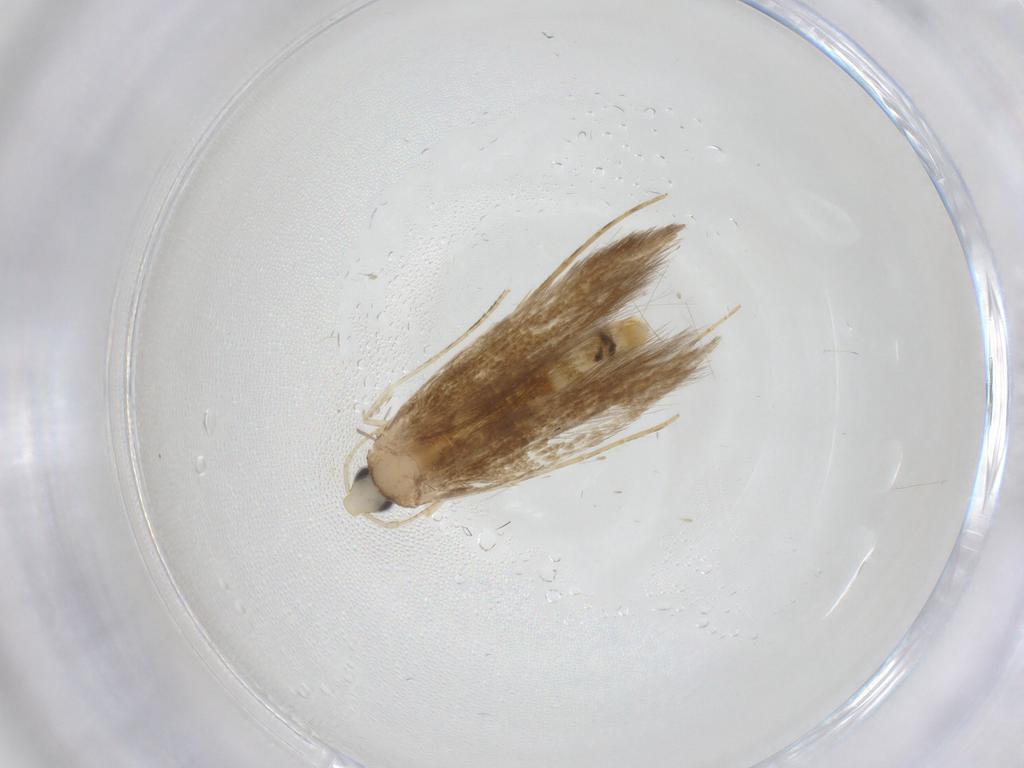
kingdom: Animalia
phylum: Arthropoda
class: Insecta
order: Lepidoptera
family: Psychidae
